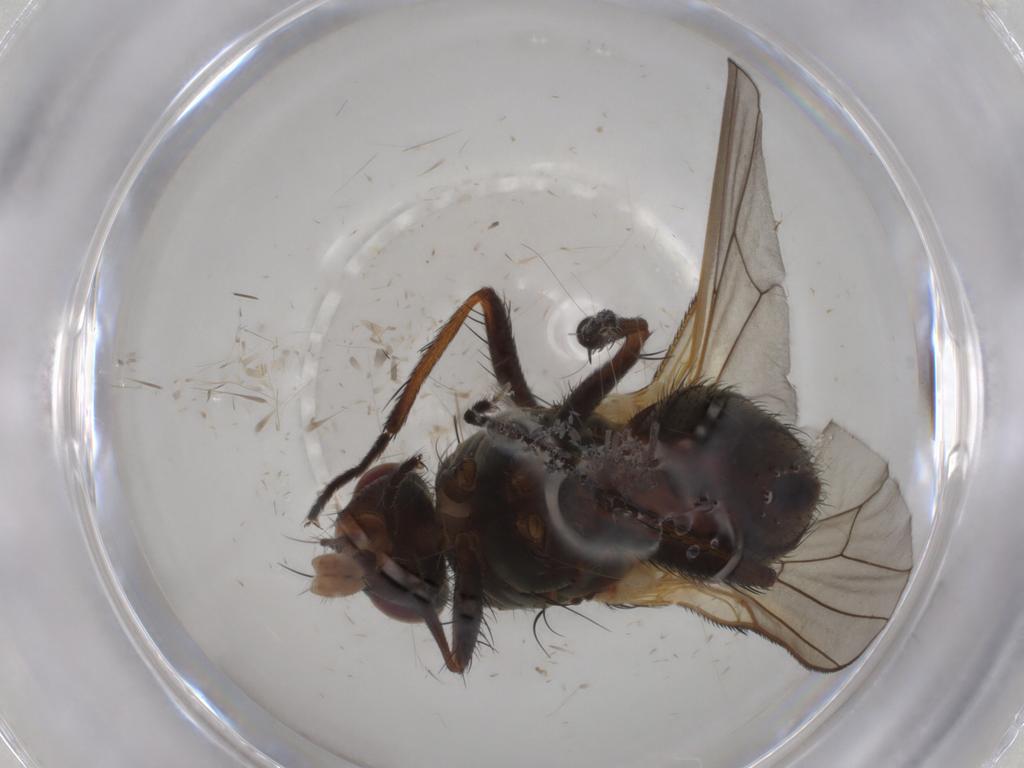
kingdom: Animalia
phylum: Arthropoda
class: Insecta
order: Diptera
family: Anthomyiidae
